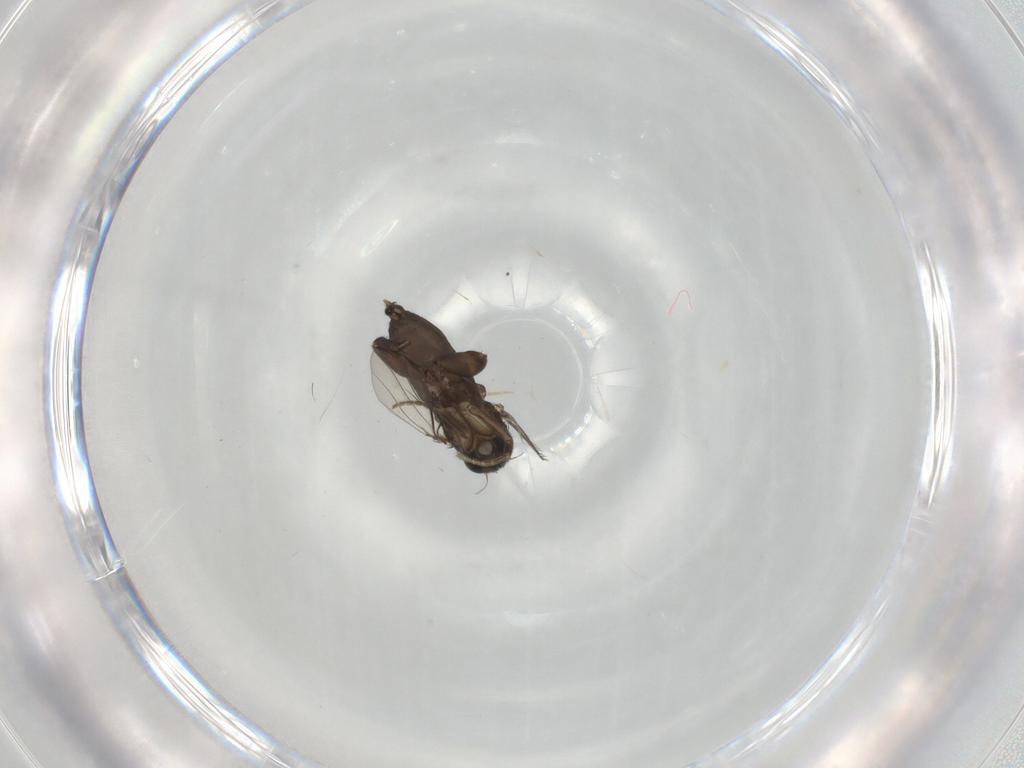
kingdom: Animalia
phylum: Arthropoda
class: Insecta
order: Diptera
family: Phoridae
